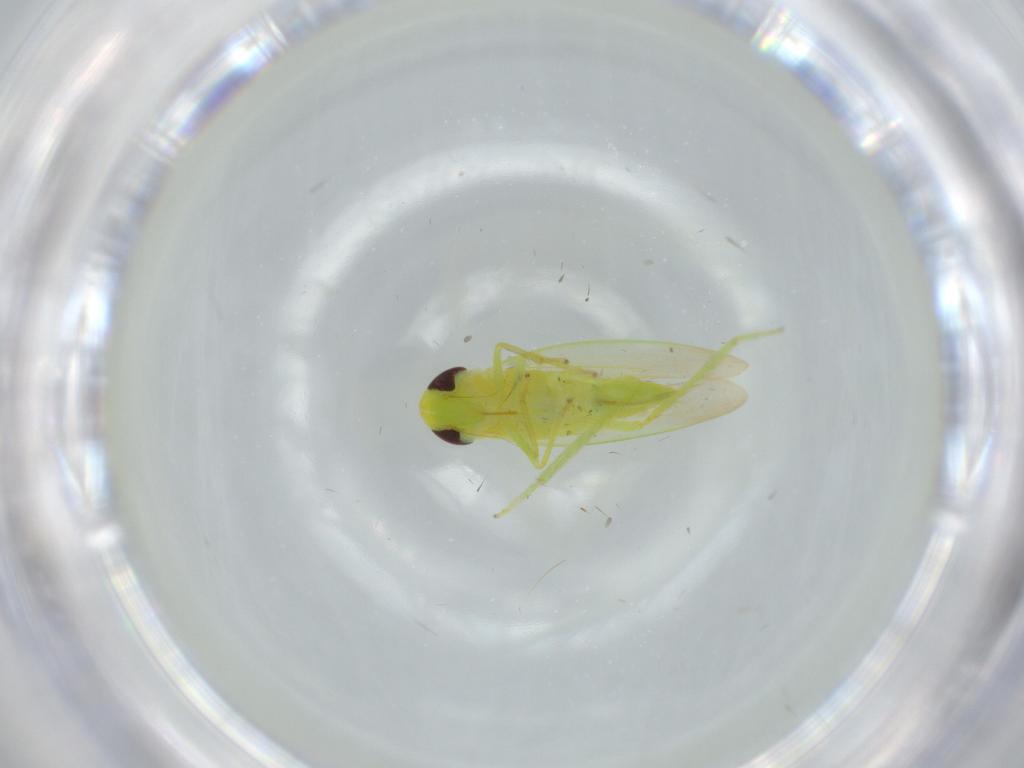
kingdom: Animalia
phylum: Arthropoda
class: Insecta
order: Hemiptera
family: Cicadellidae
